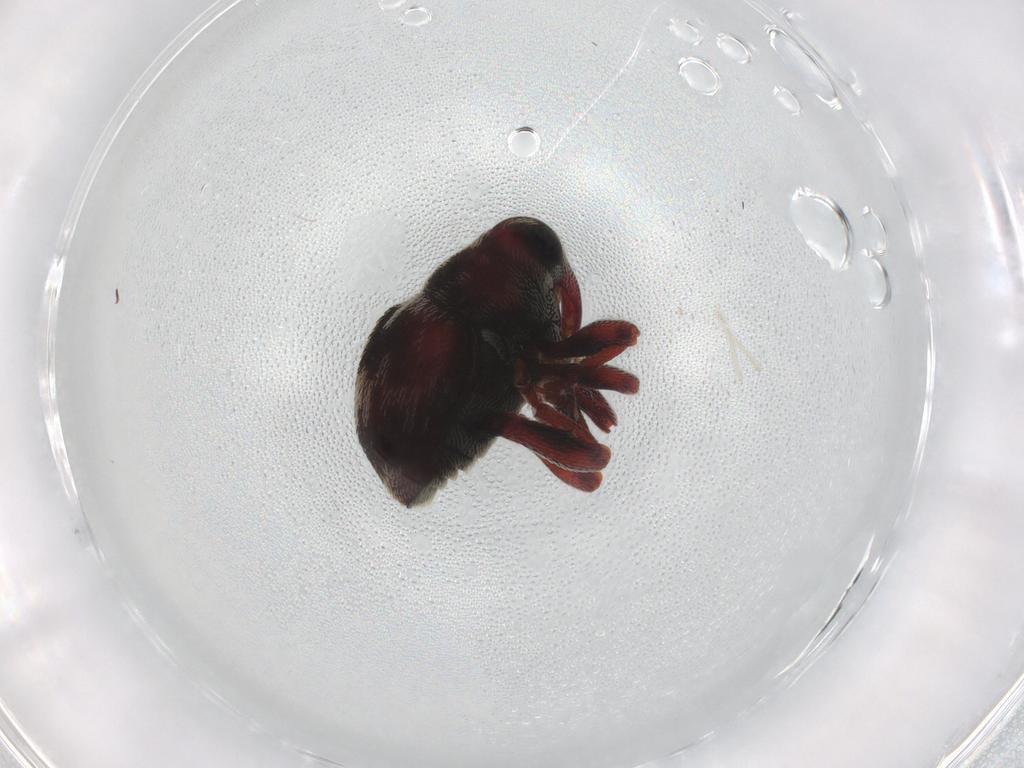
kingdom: Animalia
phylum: Arthropoda
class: Insecta
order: Coleoptera
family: Curculionidae
